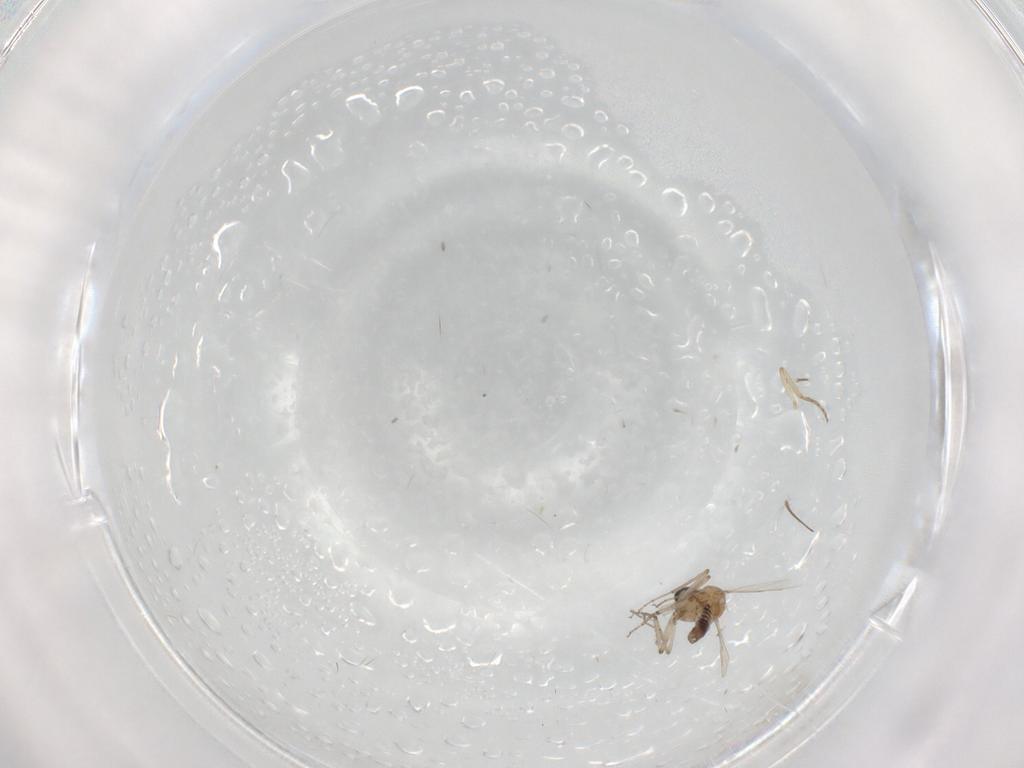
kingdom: Animalia
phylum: Arthropoda
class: Insecta
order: Diptera
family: Ceratopogonidae
